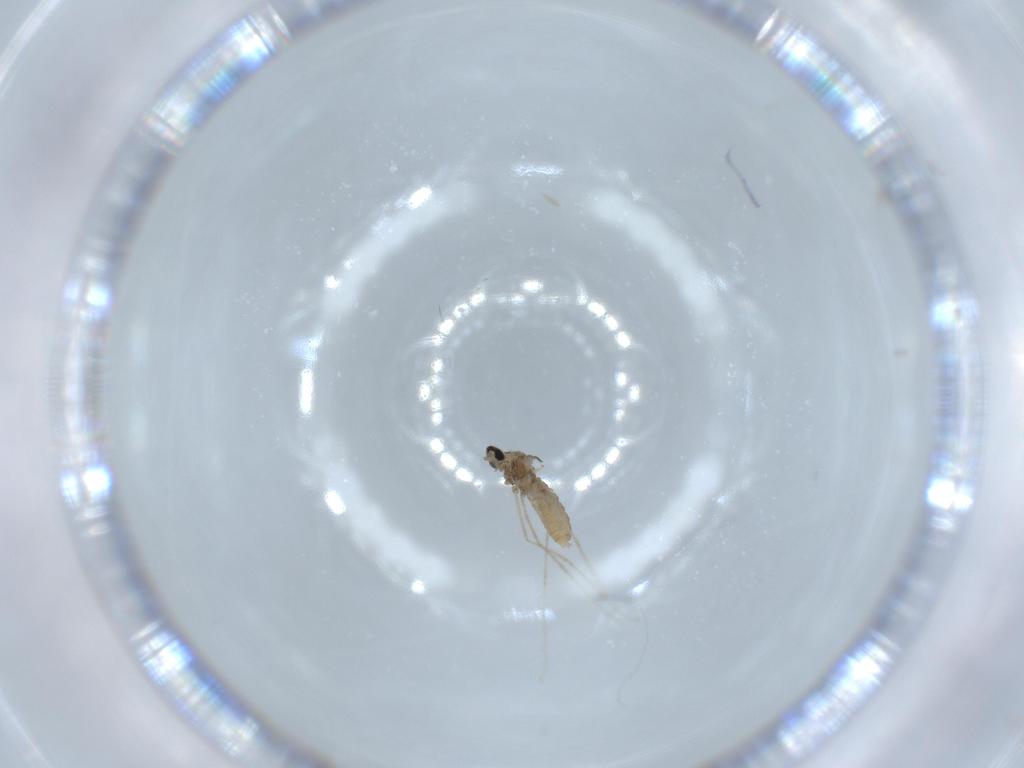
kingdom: Animalia
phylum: Arthropoda
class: Insecta
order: Diptera
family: Cecidomyiidae
